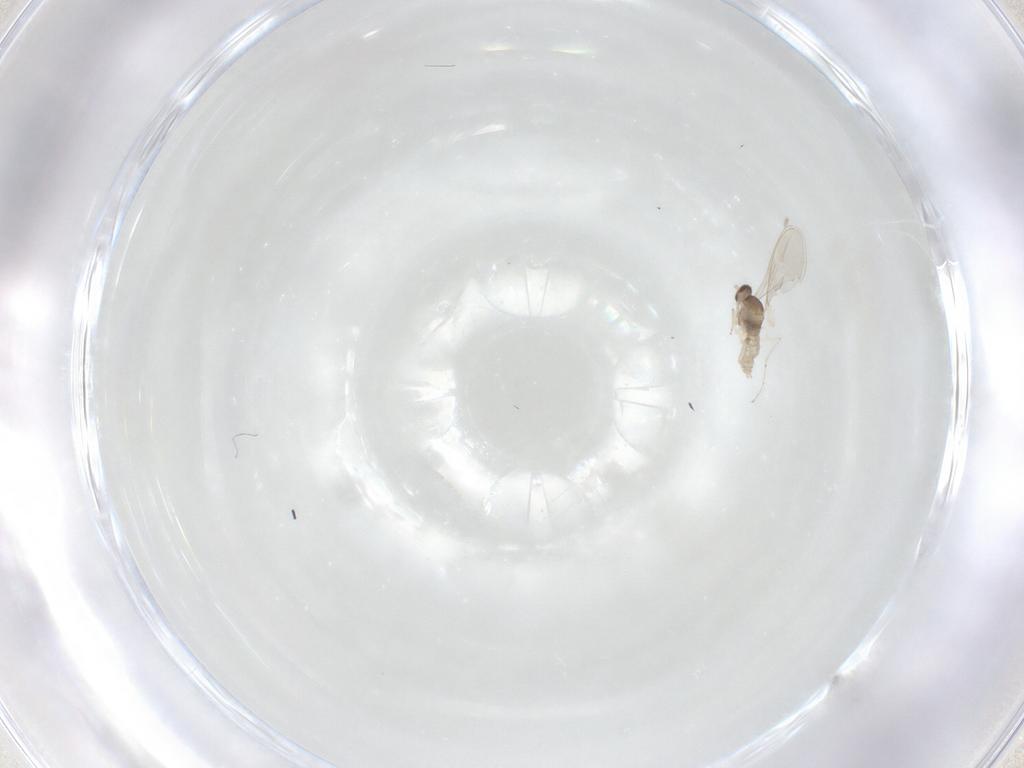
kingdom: Animalia
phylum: Arthropoda
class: Insecta
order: Diptera
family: Cecidomyiidae
